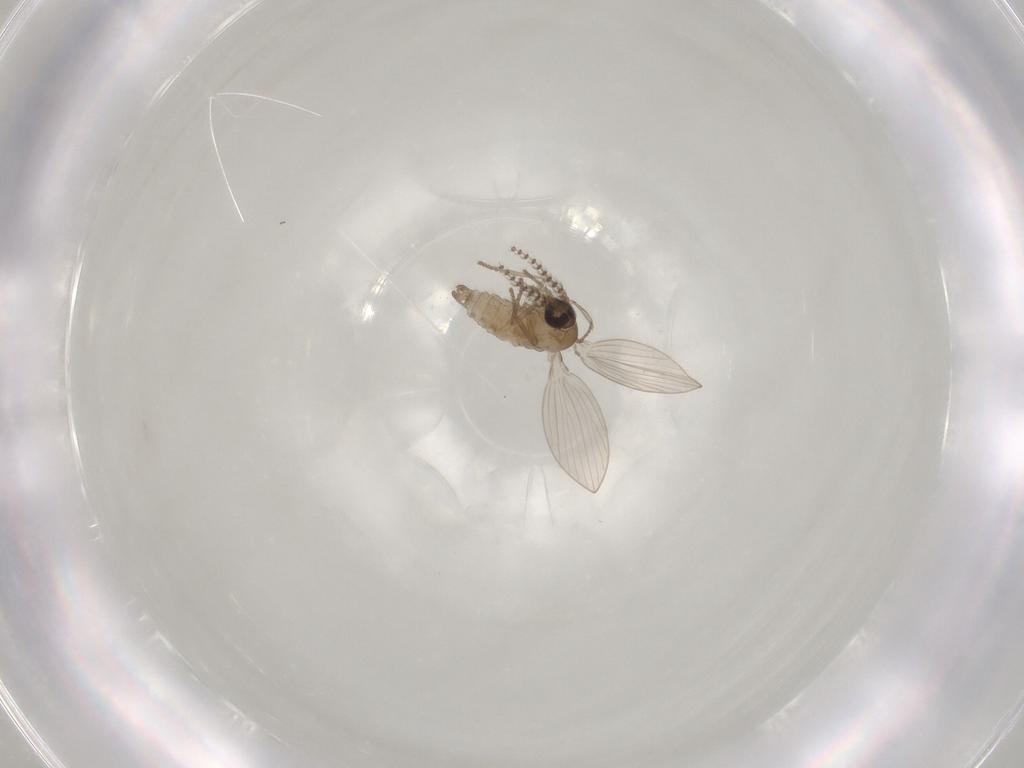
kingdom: Animalia
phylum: Arthropoda
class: Insecta
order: Diptera
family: Psychodidae
